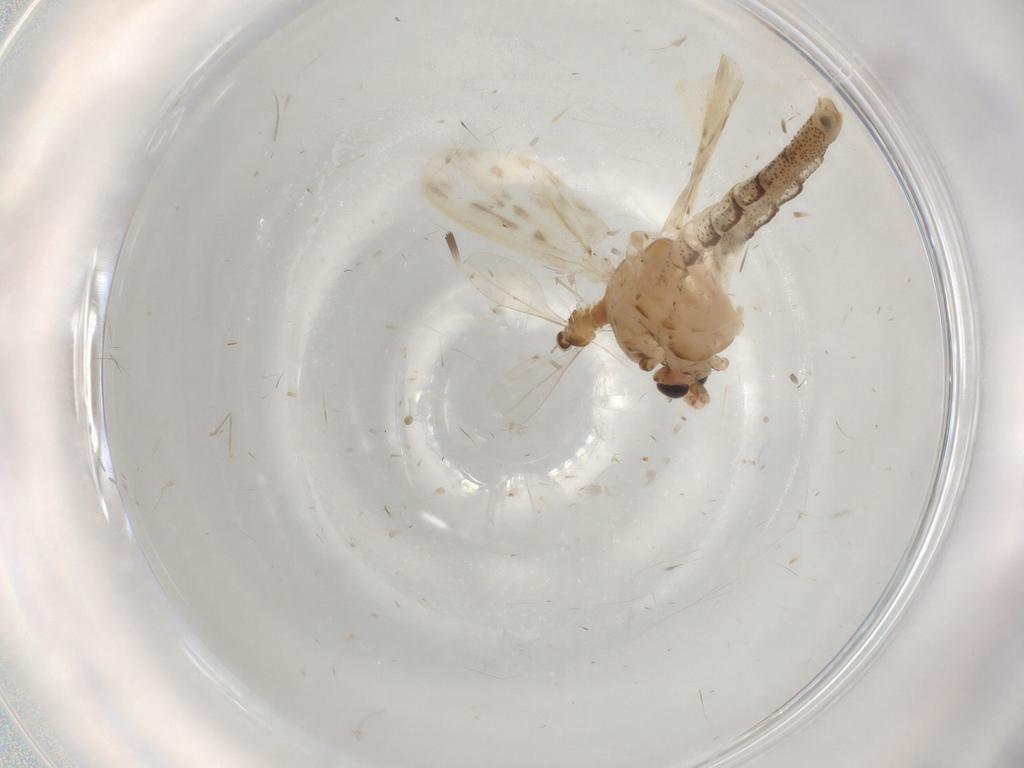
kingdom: Animalia
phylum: Arthropoda
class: Insecta
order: Diptera
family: Chaoboridae
